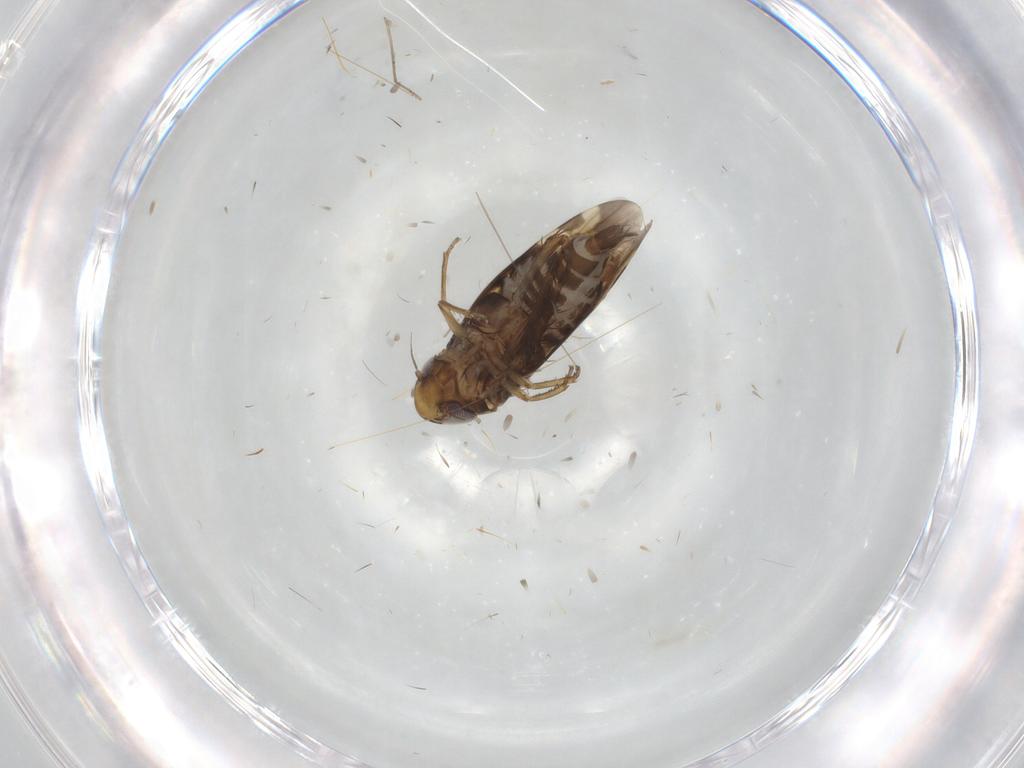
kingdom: Animalia
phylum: Arthropoda
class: Insecta
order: Hemiptera
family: Cicadellidae
